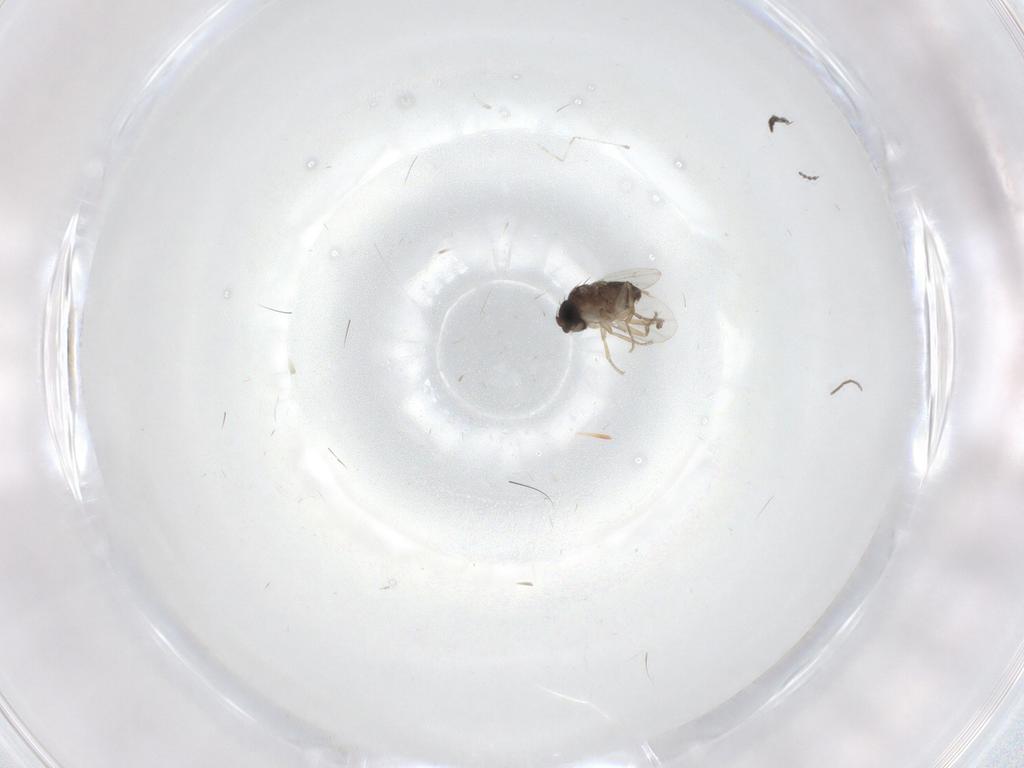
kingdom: Animalia
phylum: Arthropoda
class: Insecta
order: Diptera
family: Phoridae
